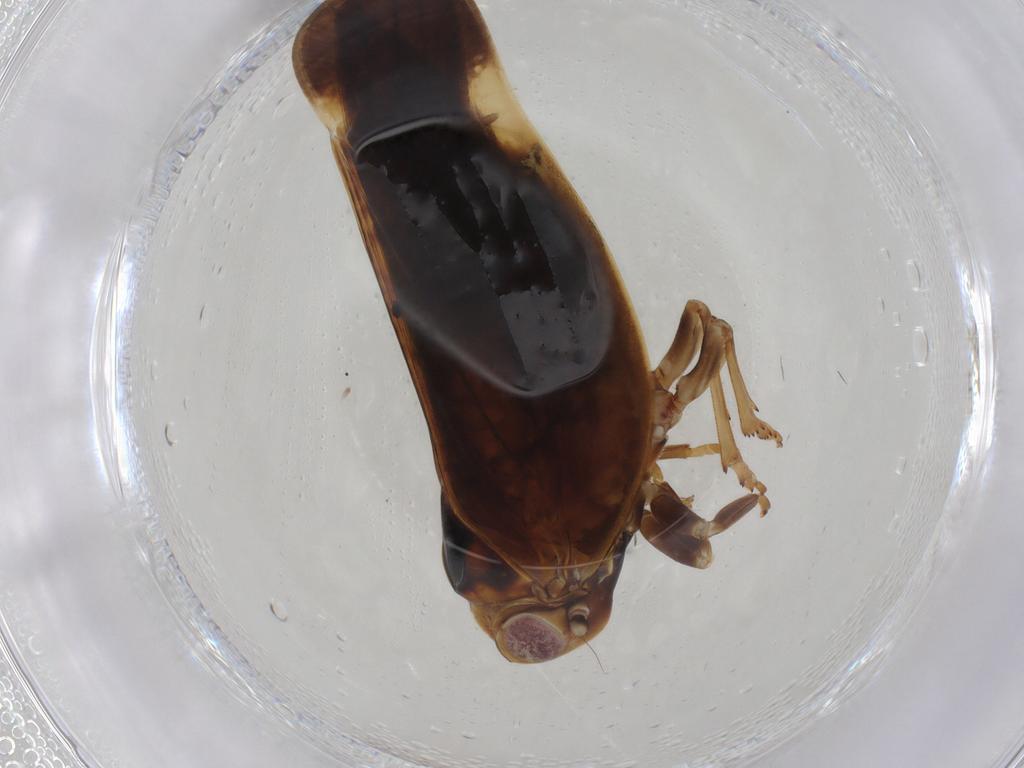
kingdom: Animalia
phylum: Arthropoda
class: Insecta
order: Hemiptera
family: Nogodinidae
